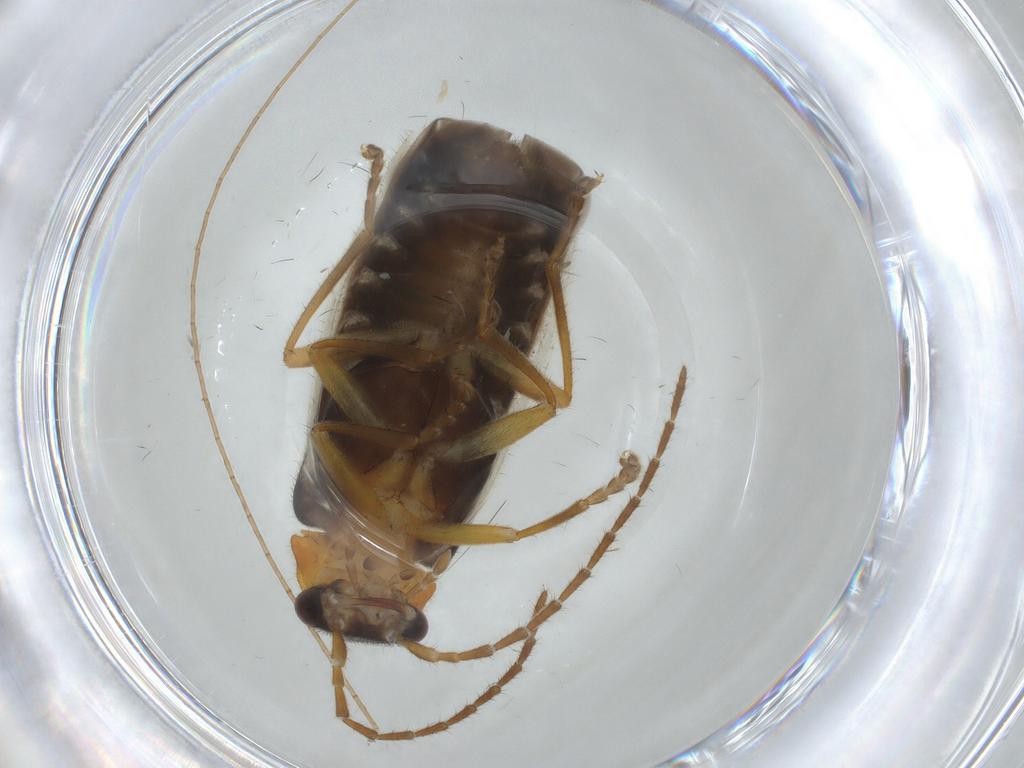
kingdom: Animalia
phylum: Arthropoda
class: Insecta
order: Coleoptera
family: Cantharidae
